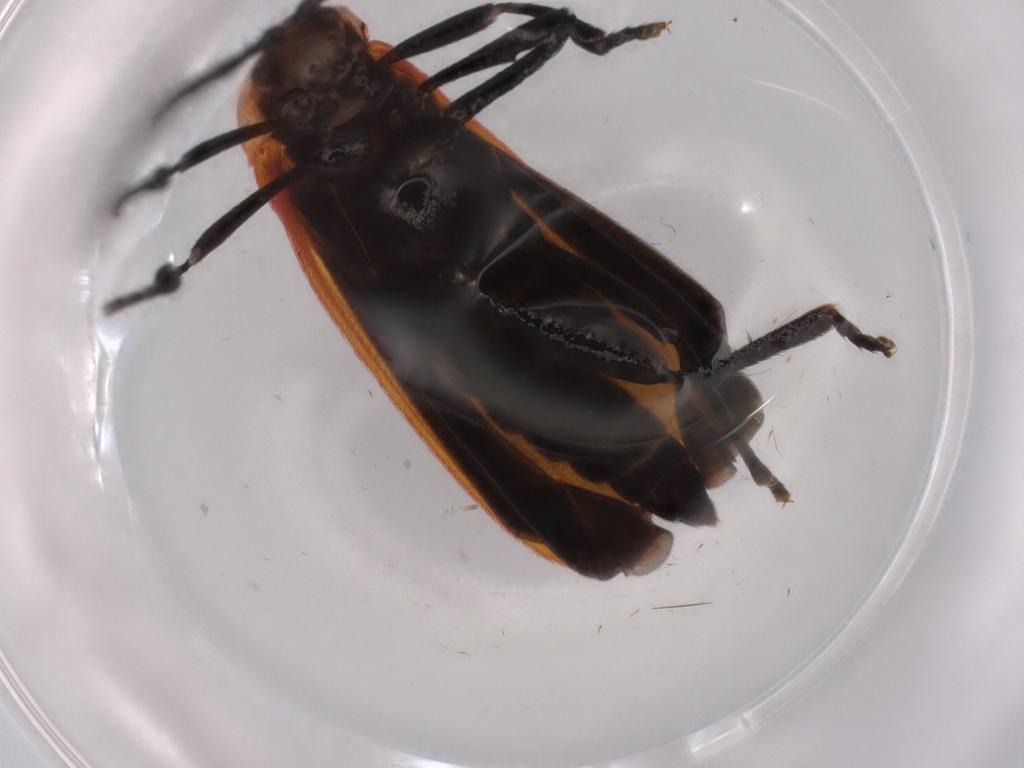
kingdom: Animalia
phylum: Arthropoda
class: Insecta
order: Coleoptera
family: Lycidae
